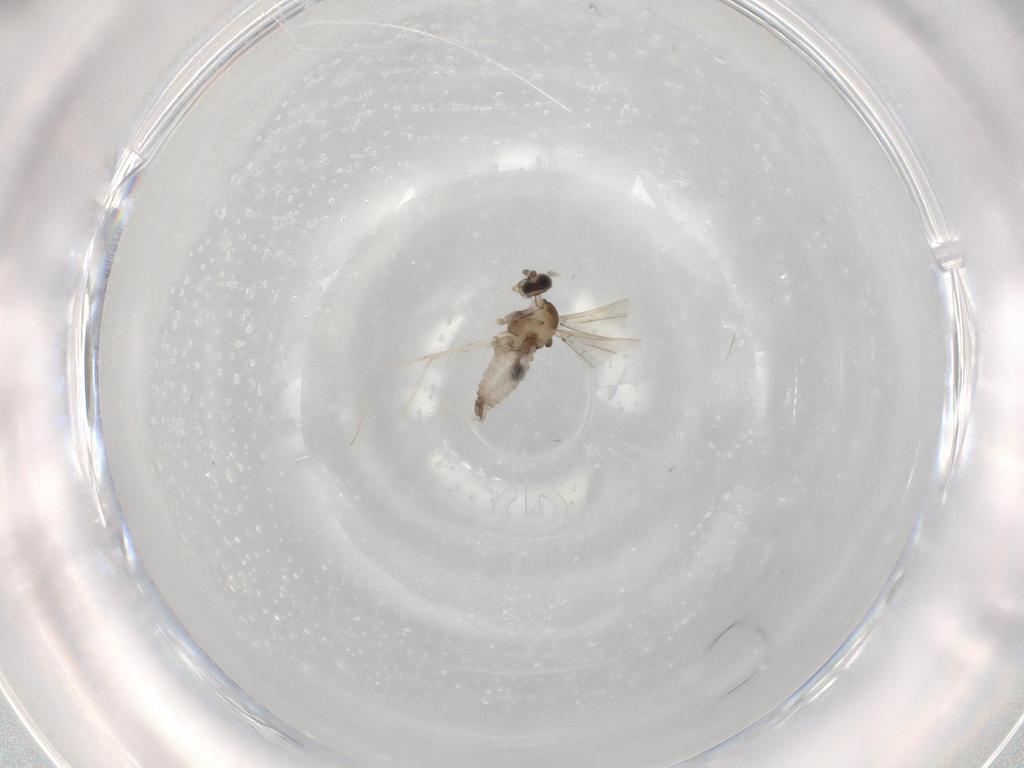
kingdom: Animalia
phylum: Arthropoda
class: Insecta
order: Diptera
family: Cecidomyiidae
